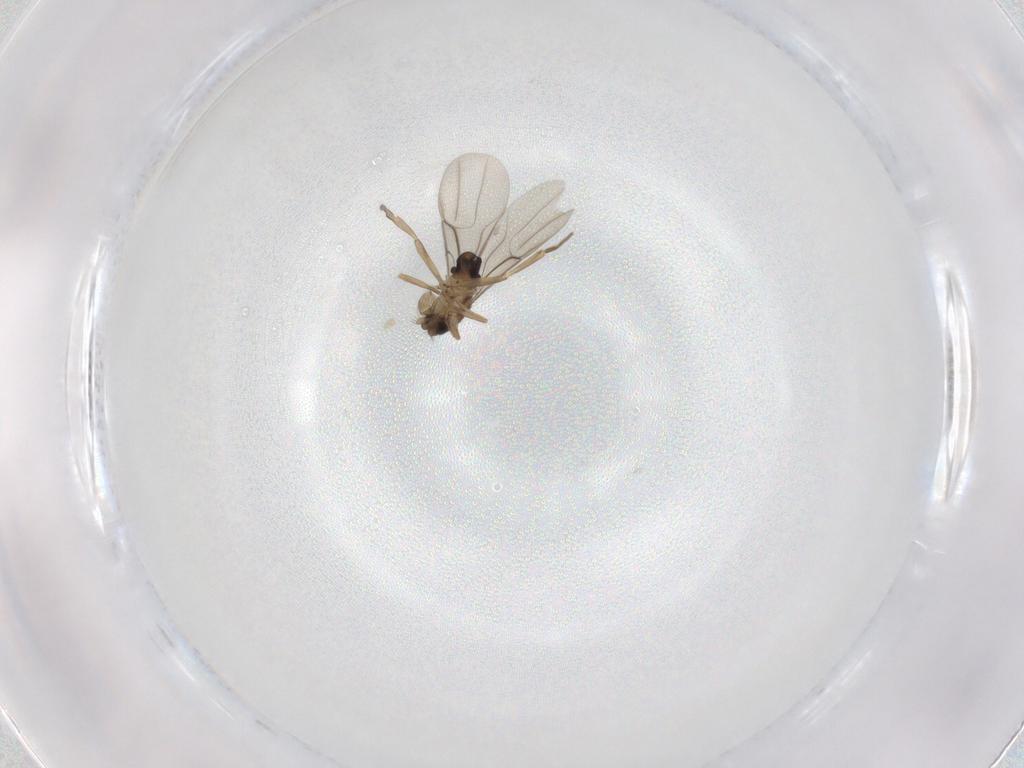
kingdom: Animalia
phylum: Arthropoda
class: Insecta
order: Diptera
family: Phoridae
